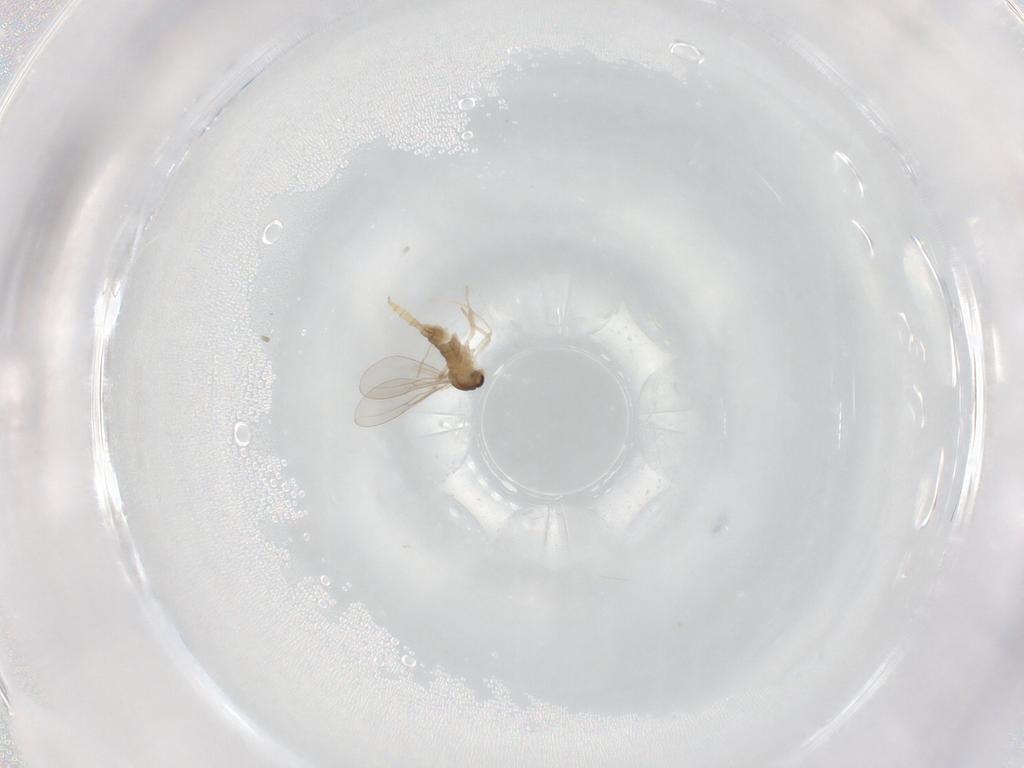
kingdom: Animalia
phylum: Arthropoda
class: Insecta
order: Diptera
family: Cecidomyiidae
